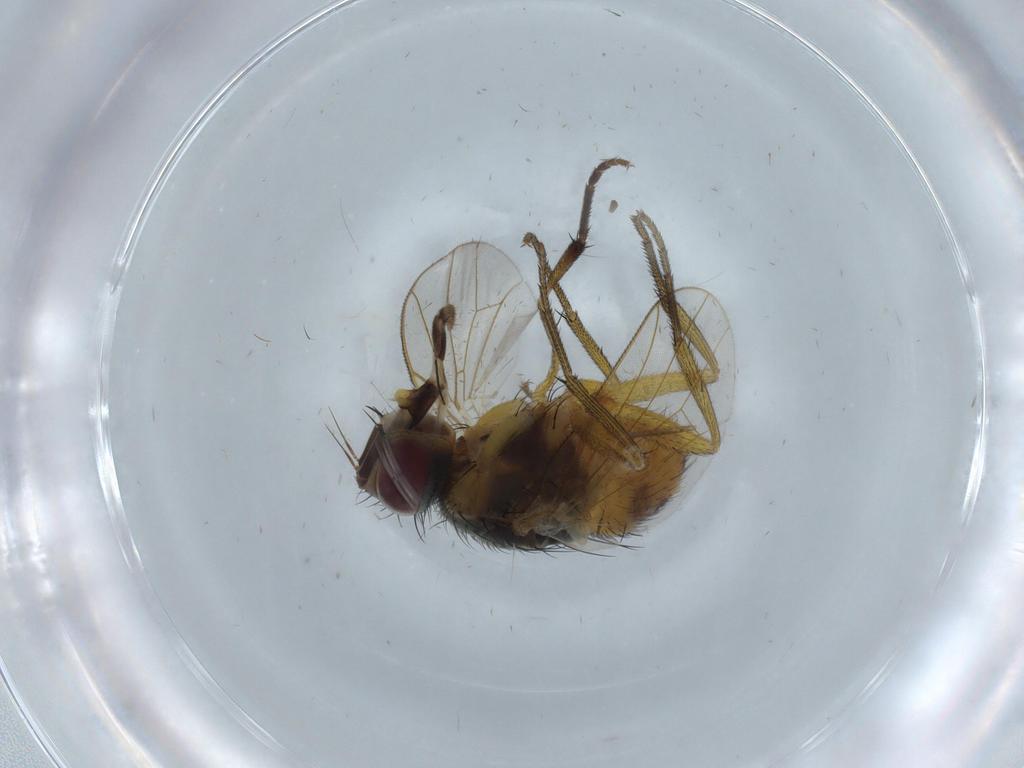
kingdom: Animalia
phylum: Arthropoda
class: Insecta
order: Diptera
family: Muscidae
